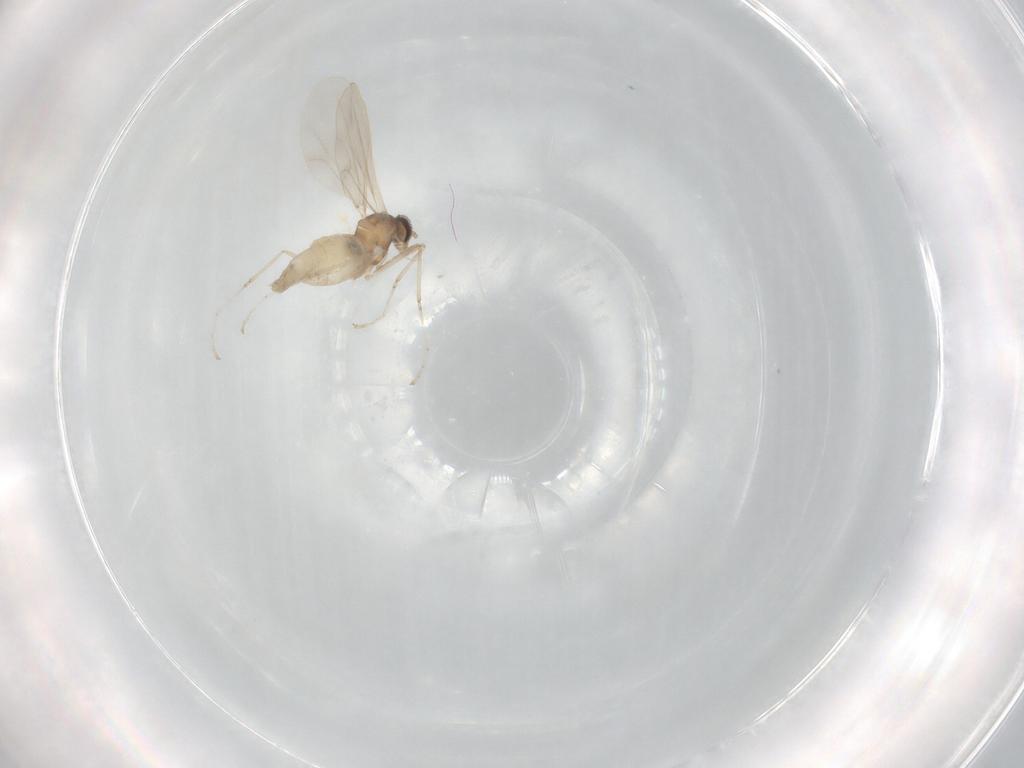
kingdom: Animalia
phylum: Arthropoda
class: Insecta
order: Diptera
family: Cecidomyiidae
